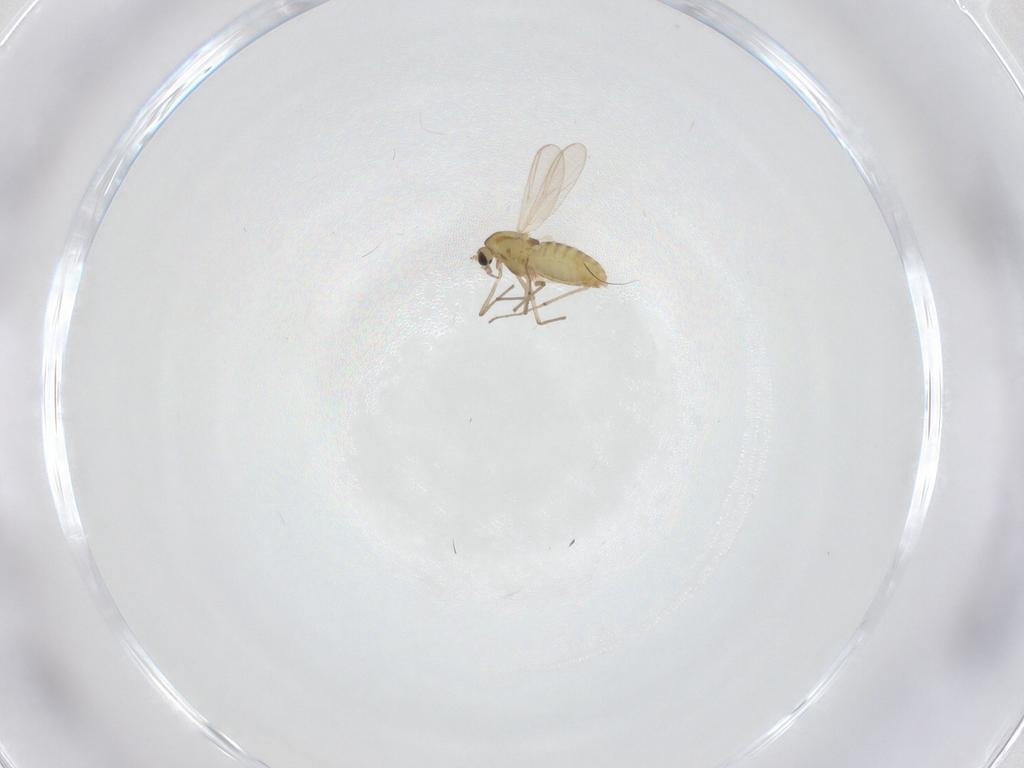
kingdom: Animalia
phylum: Arthropoda
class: Insecta
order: Diptera
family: Chironomidae
